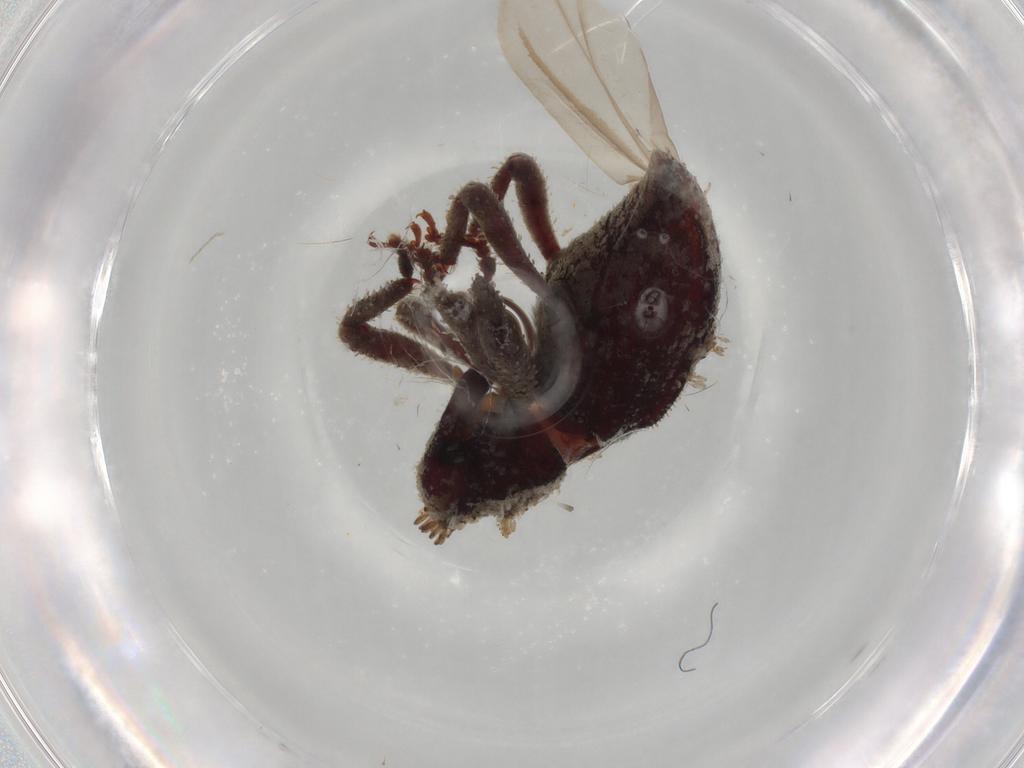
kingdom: Animalia
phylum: Arthropoda
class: Insecta
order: Coleoptera
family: Curculionidae
